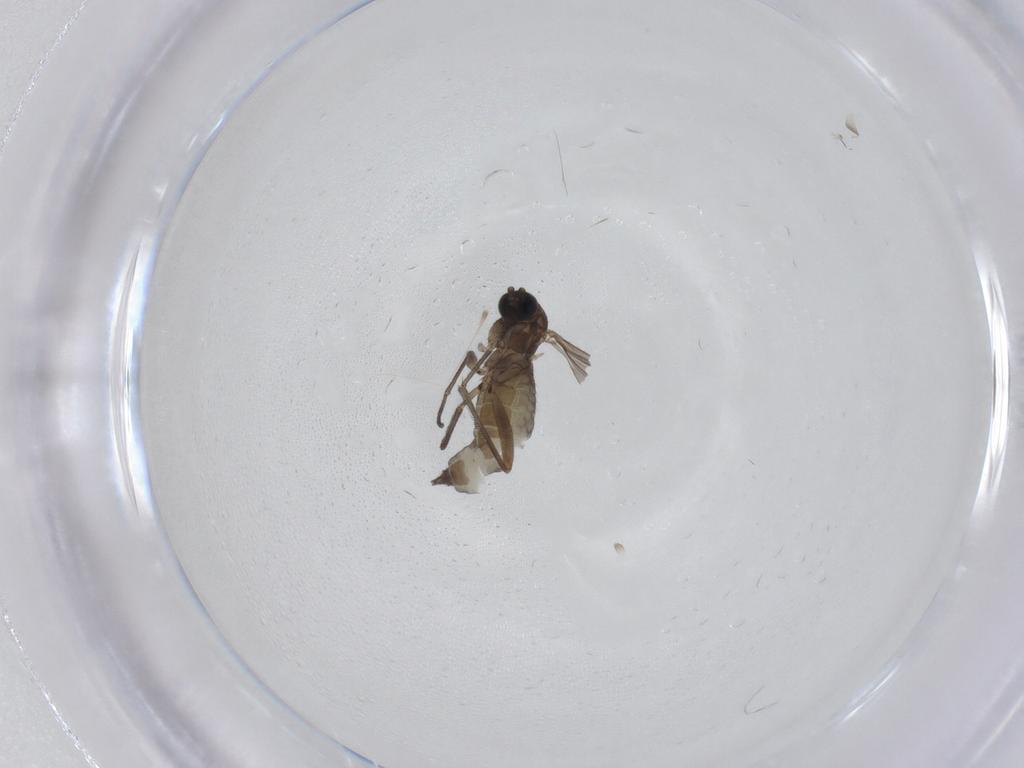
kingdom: Animalia
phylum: Arthropoda
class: Insecta
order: Diptera
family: Sciaridae
